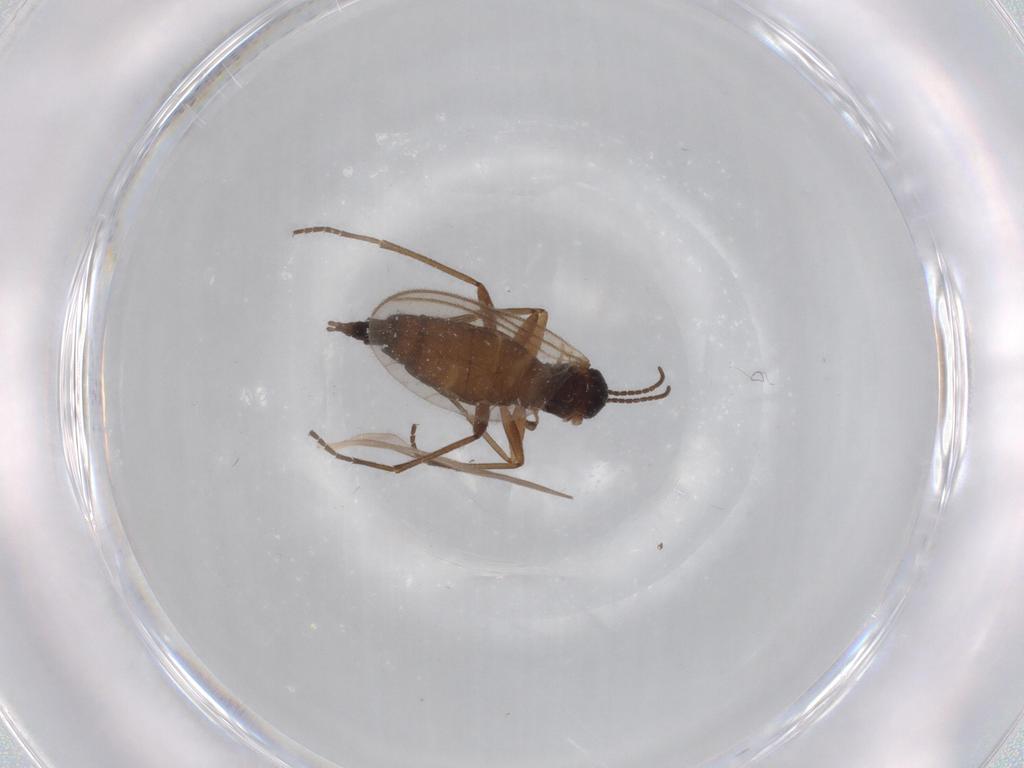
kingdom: Animalia
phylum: Arthropoda
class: Insecta
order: Diptera
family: Sciaridae
